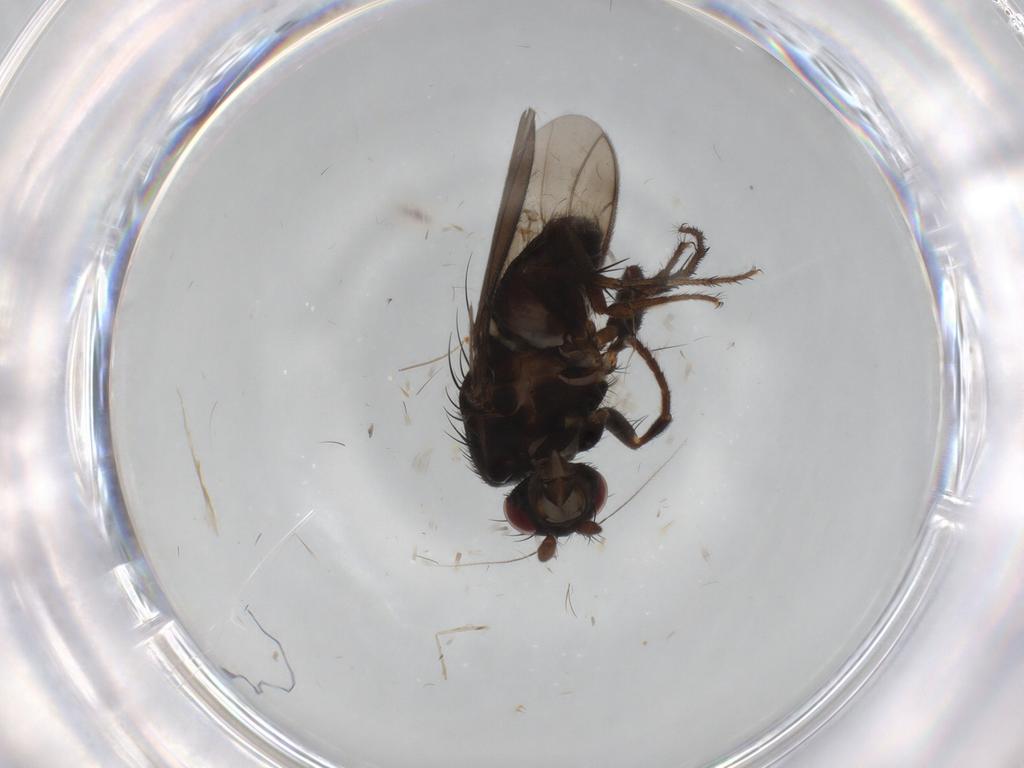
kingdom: Animalia
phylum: Arthropoda
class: Insecta
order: Diptera
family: Sphaeroceridae
